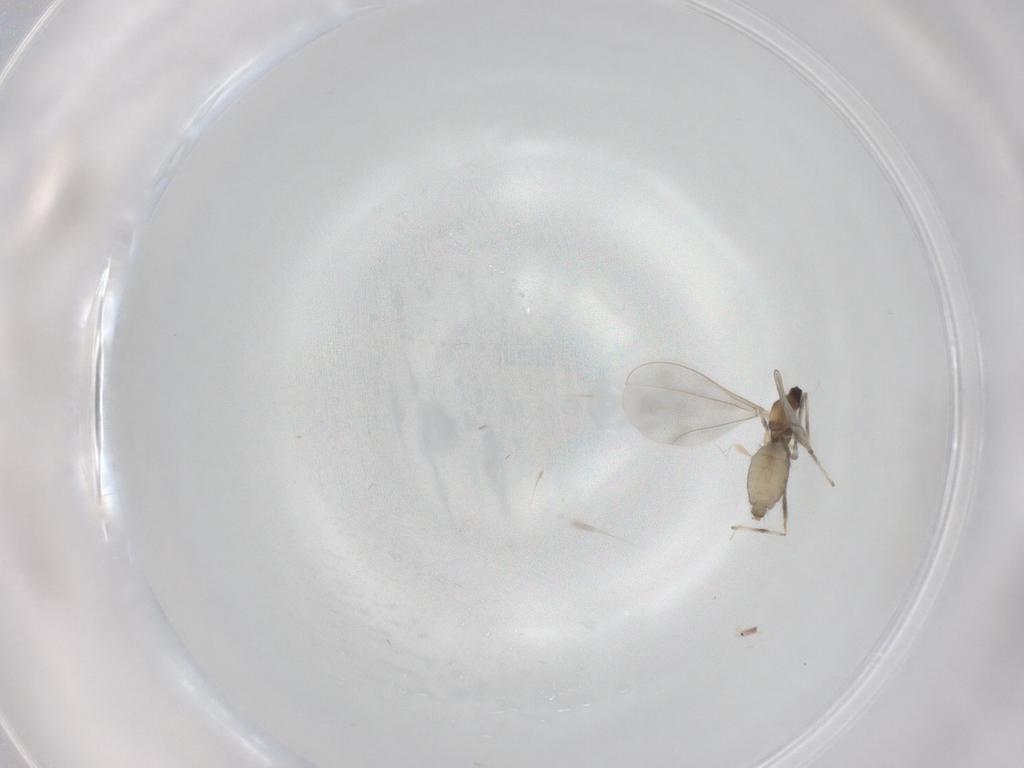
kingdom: Animalia
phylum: Arthropoda
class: Insecta
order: Diptera
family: Cecidomyiidae
